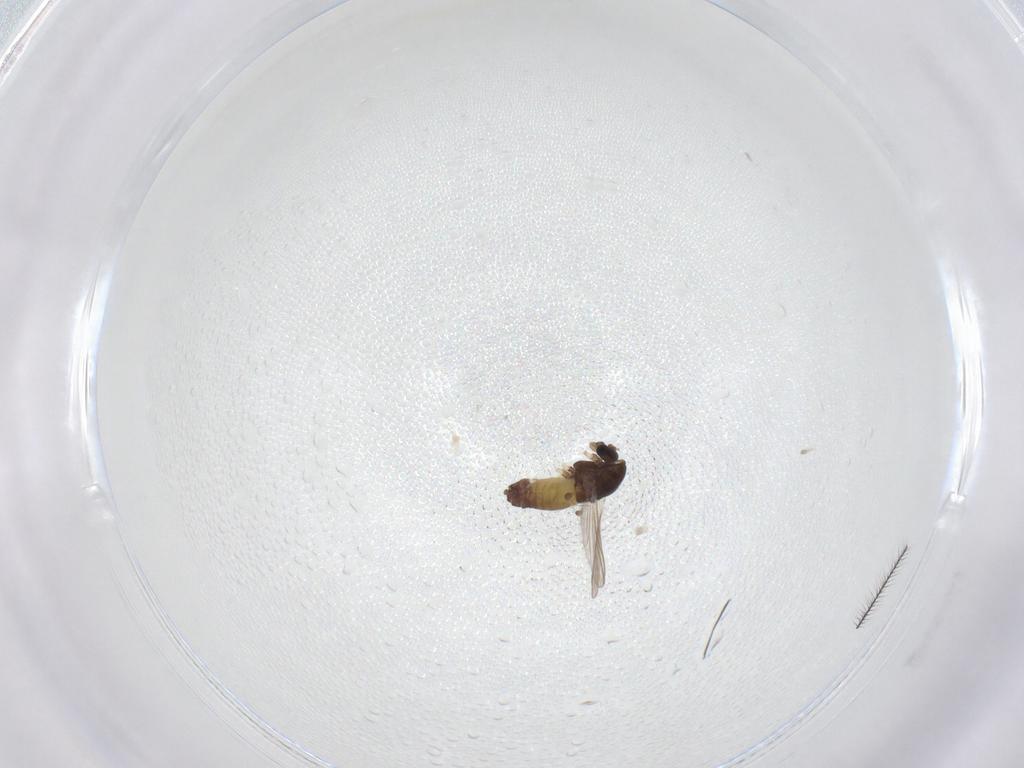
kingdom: Animalia
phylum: Arthropoda
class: Insecta
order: Diptera
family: Chironomidae
